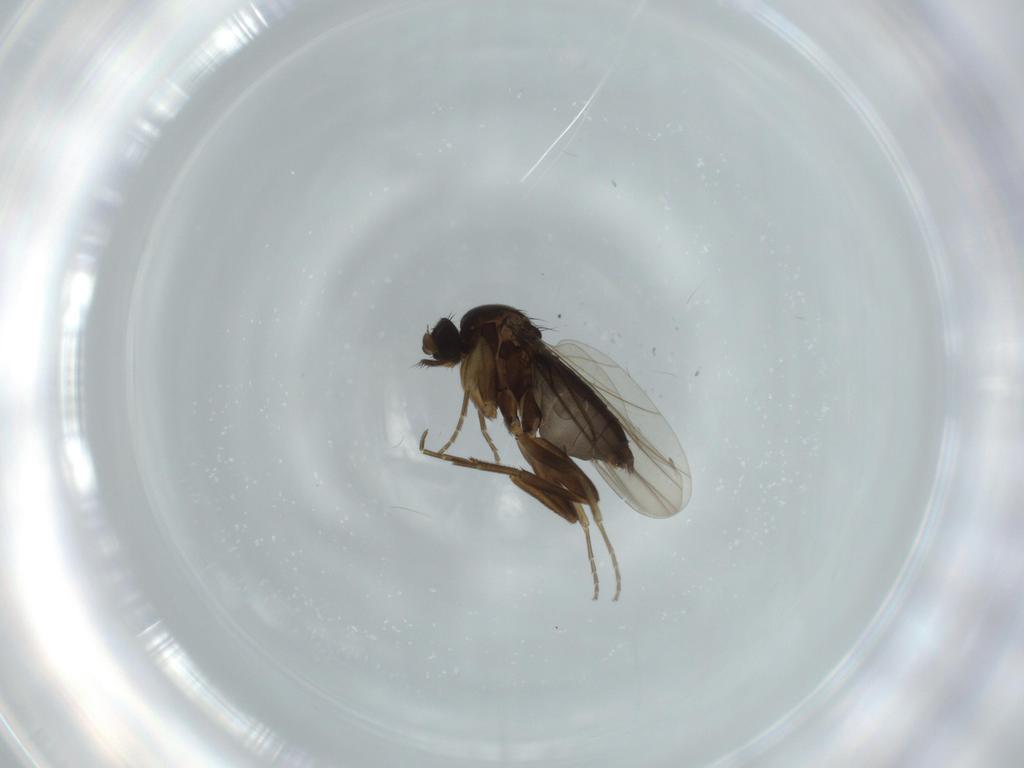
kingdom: Animalia
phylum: Arthropoda
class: Insecta
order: Diptera
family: Phoridae
